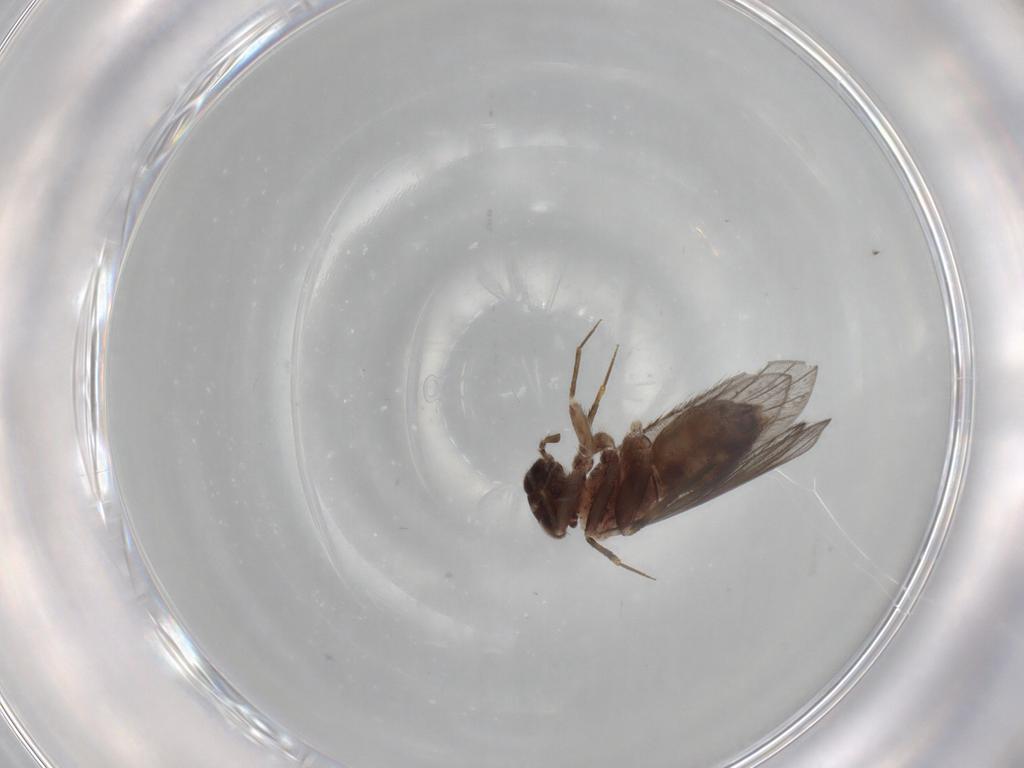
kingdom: Animalia
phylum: Arthropoda
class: Insecta
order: Psocodea
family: Lepidopsocidae
